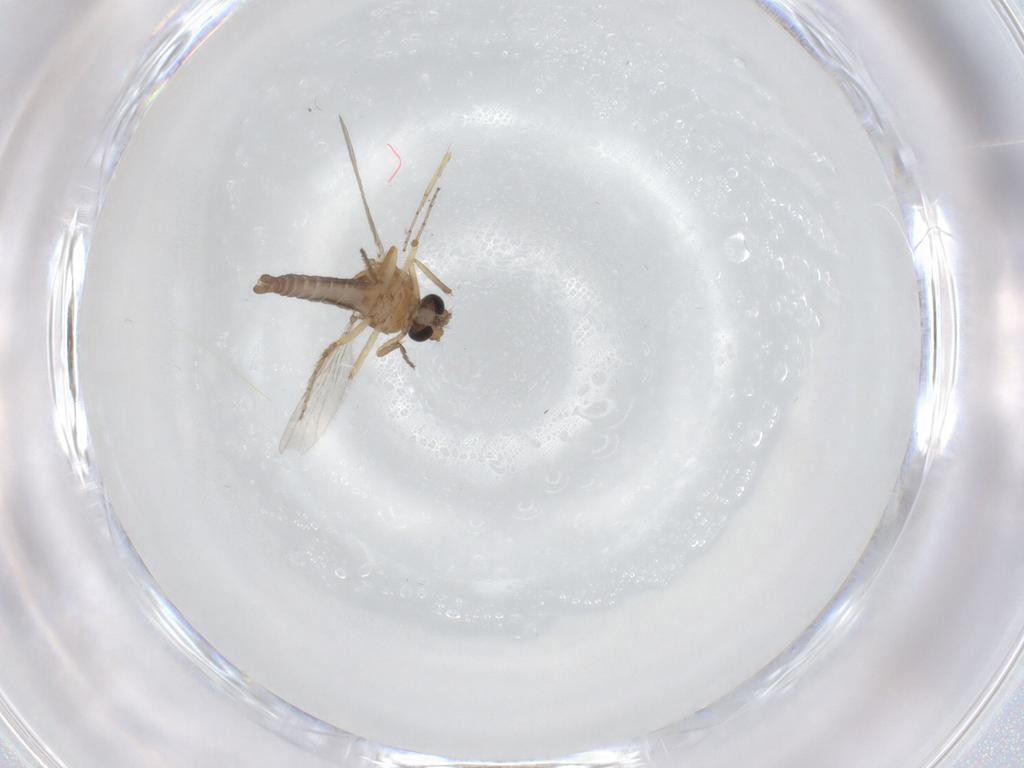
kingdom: Animalia
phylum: Arthropoda
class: Insecta
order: Diptera
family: Ceratopogonidae
